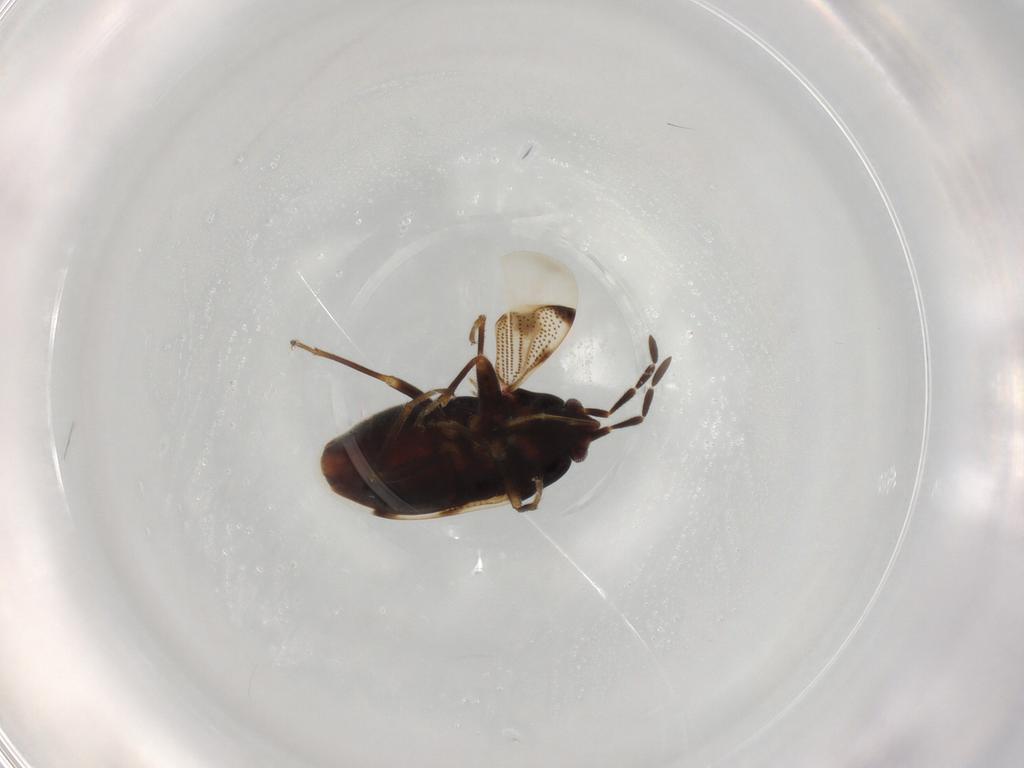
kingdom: Animalia
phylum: Arthropoda
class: Insecta
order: Hemiptera
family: Rhyparochromidae
